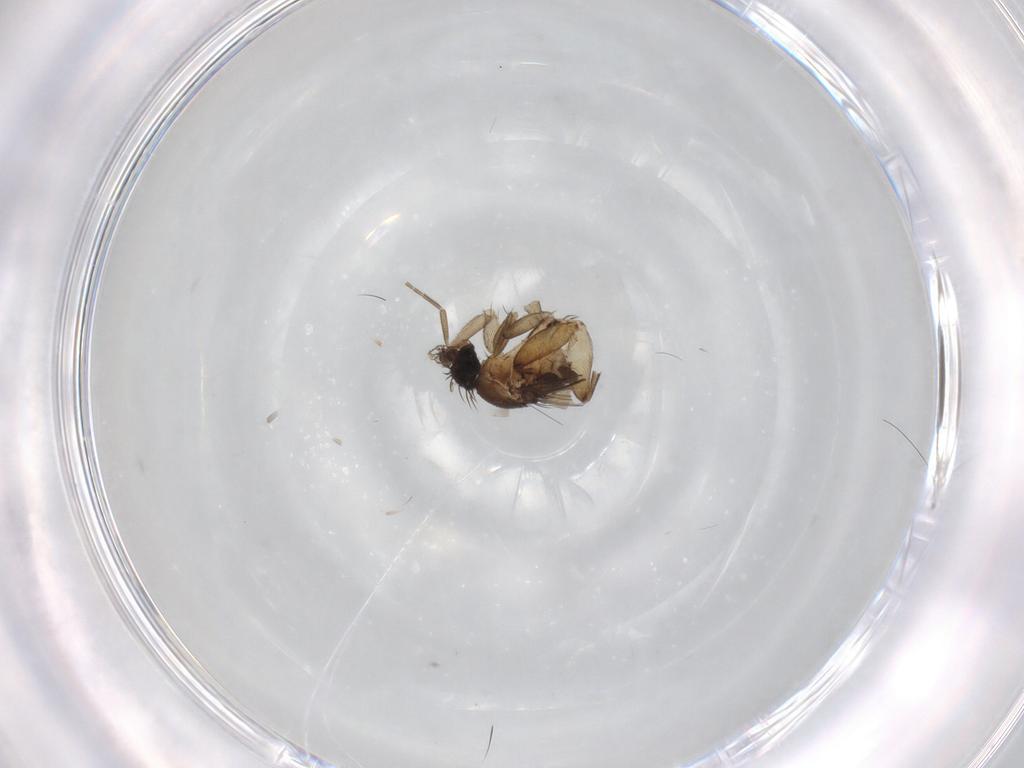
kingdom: Animalia
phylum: Arthropoda
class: Insecta
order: Diptera
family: Phoridae
